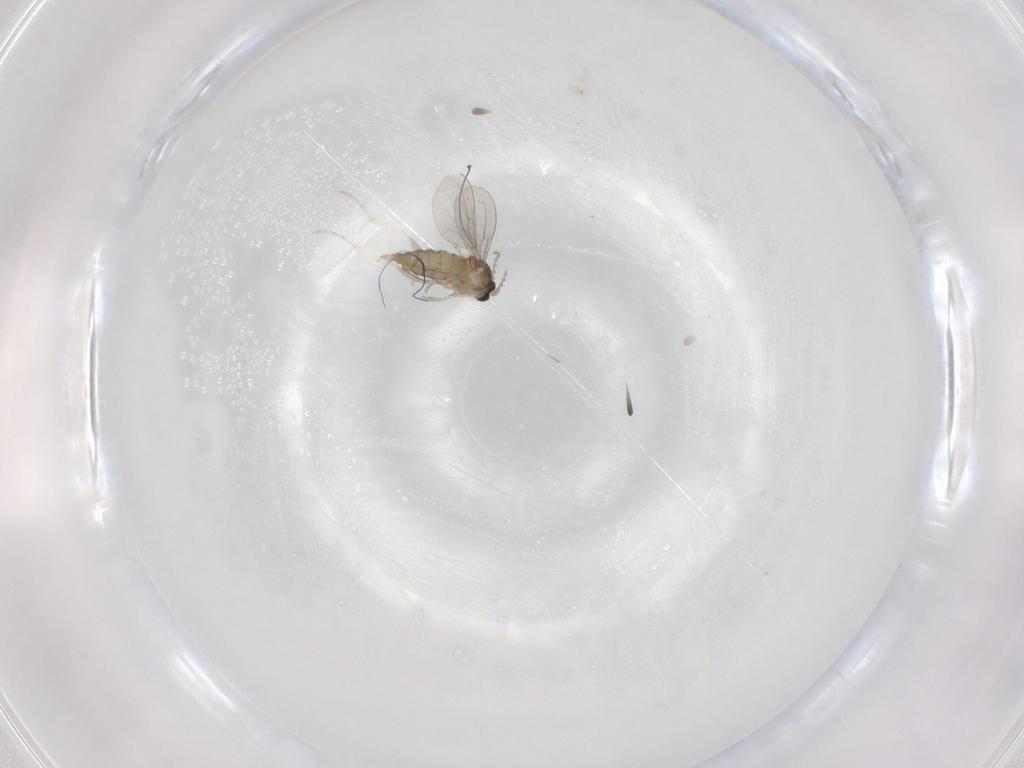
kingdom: Animalia
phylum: Arthropoda
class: Insecta
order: Diptera
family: Cecidomyiidae
